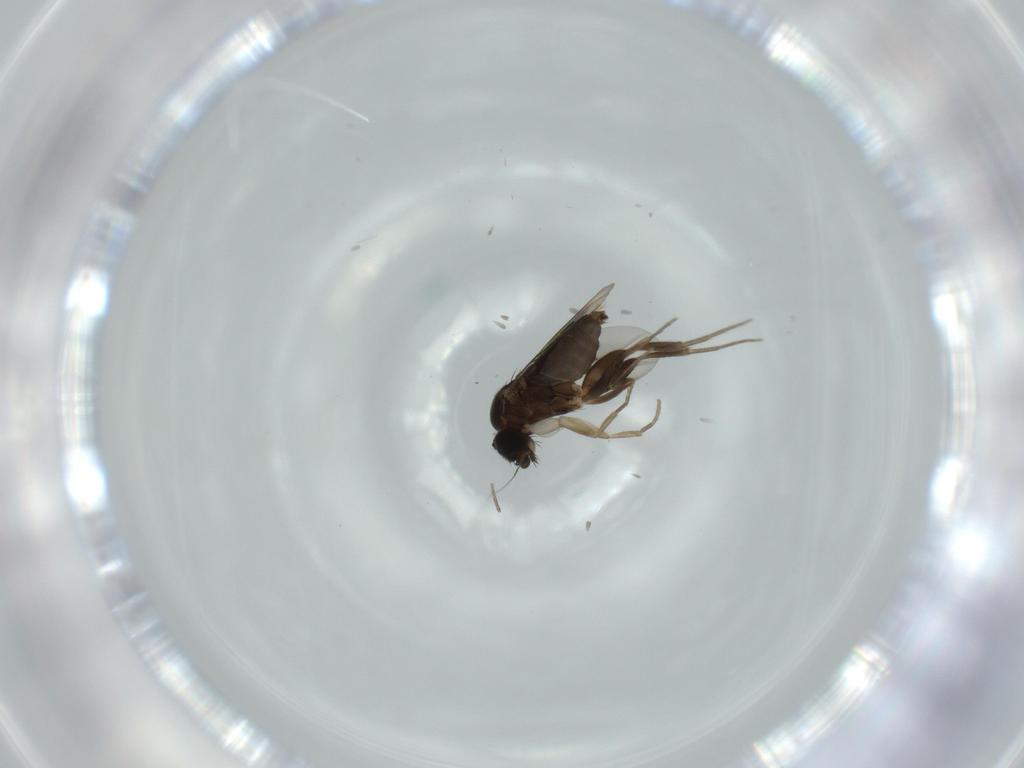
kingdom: Animalia
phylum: Arthropoda
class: Insecta
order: Diptera
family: Phoridae
